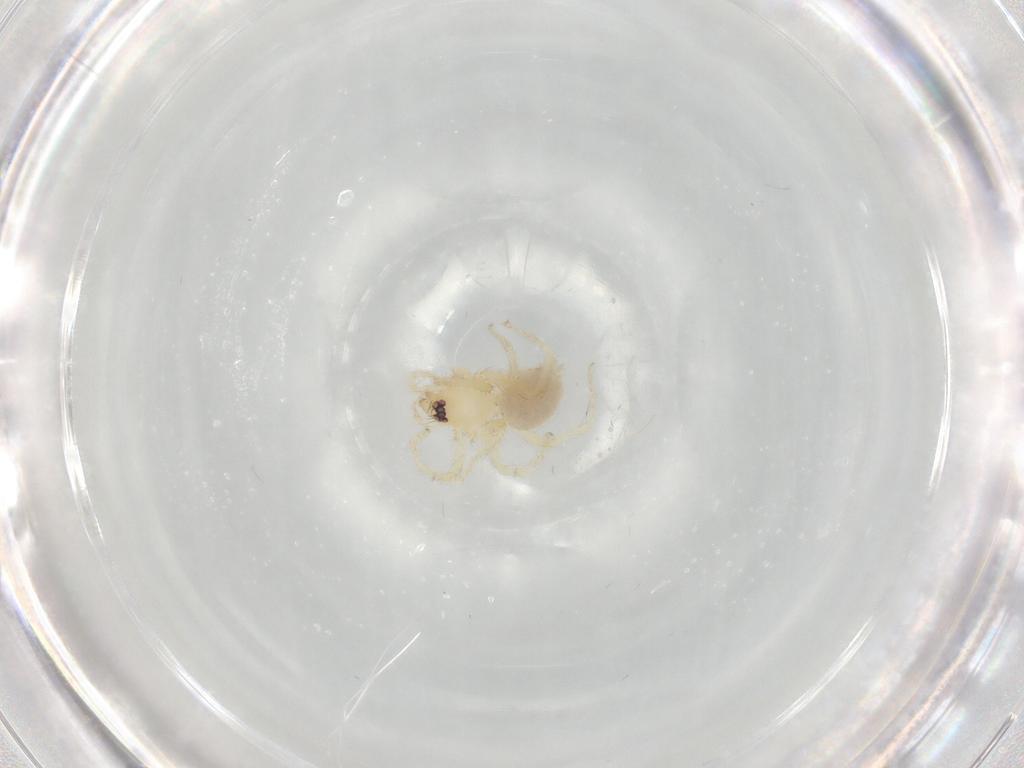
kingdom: Animalia
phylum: Arthropoda
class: Arachnida
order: Araneae
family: Oonopidae
